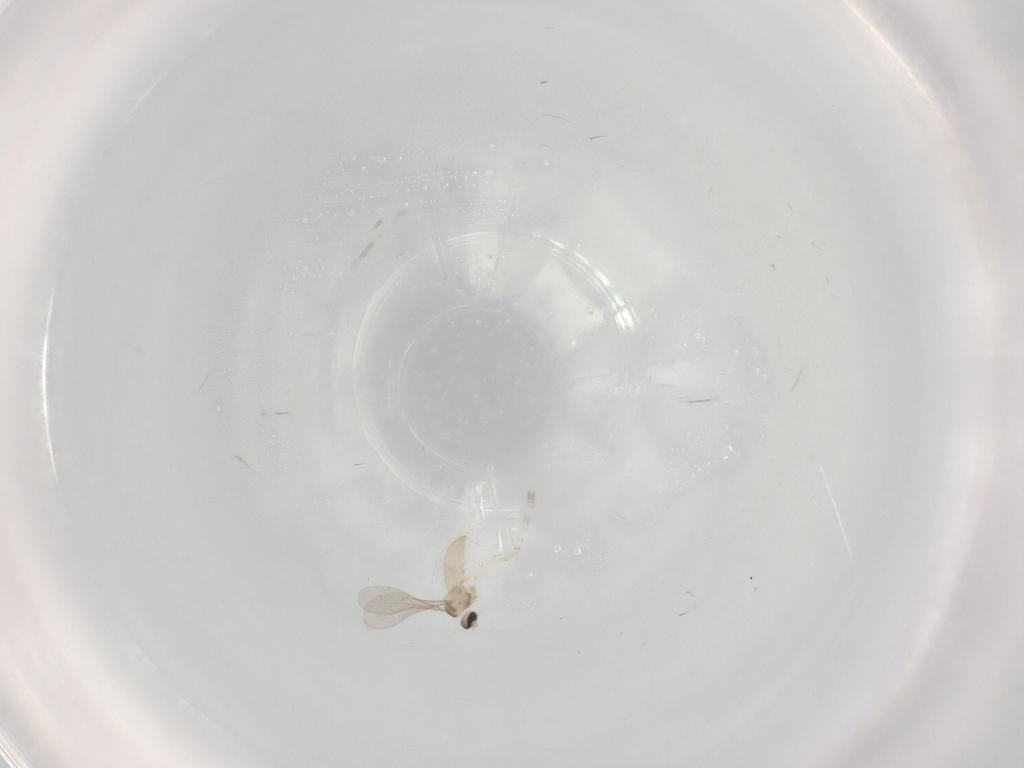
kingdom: Animalia
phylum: Arthropoda
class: Insecta
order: Diptera
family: Cecidomyiidae
